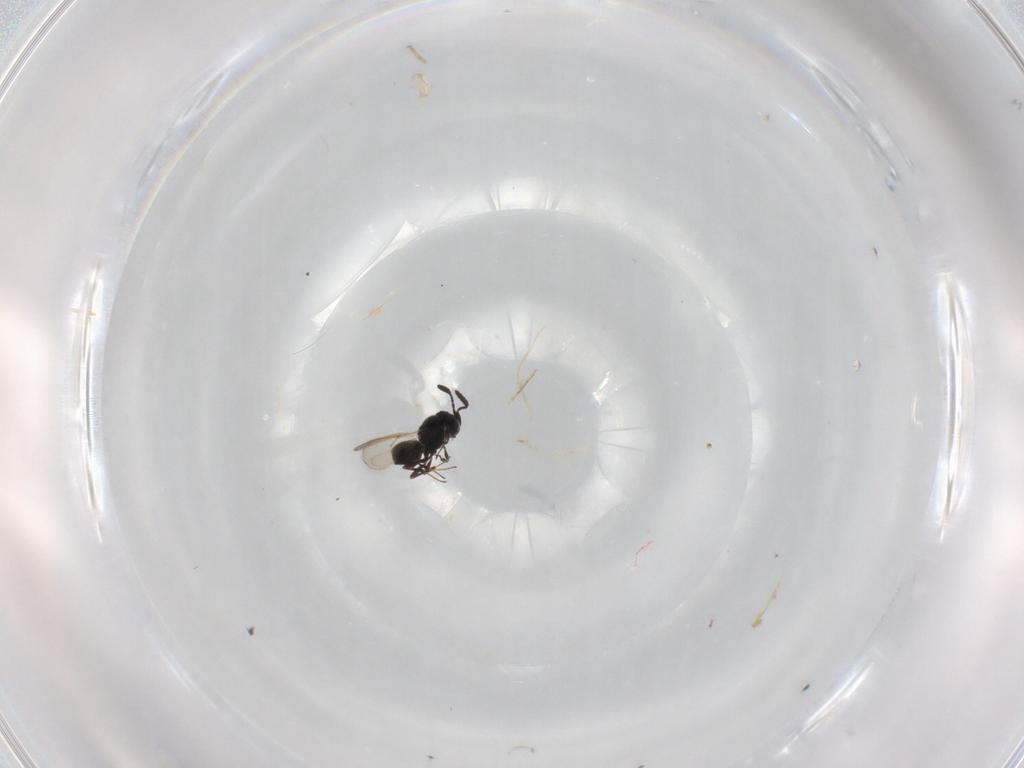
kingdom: Animalia
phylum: Arthropoda
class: Insecta
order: Hymenoptera
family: Scelionidae
